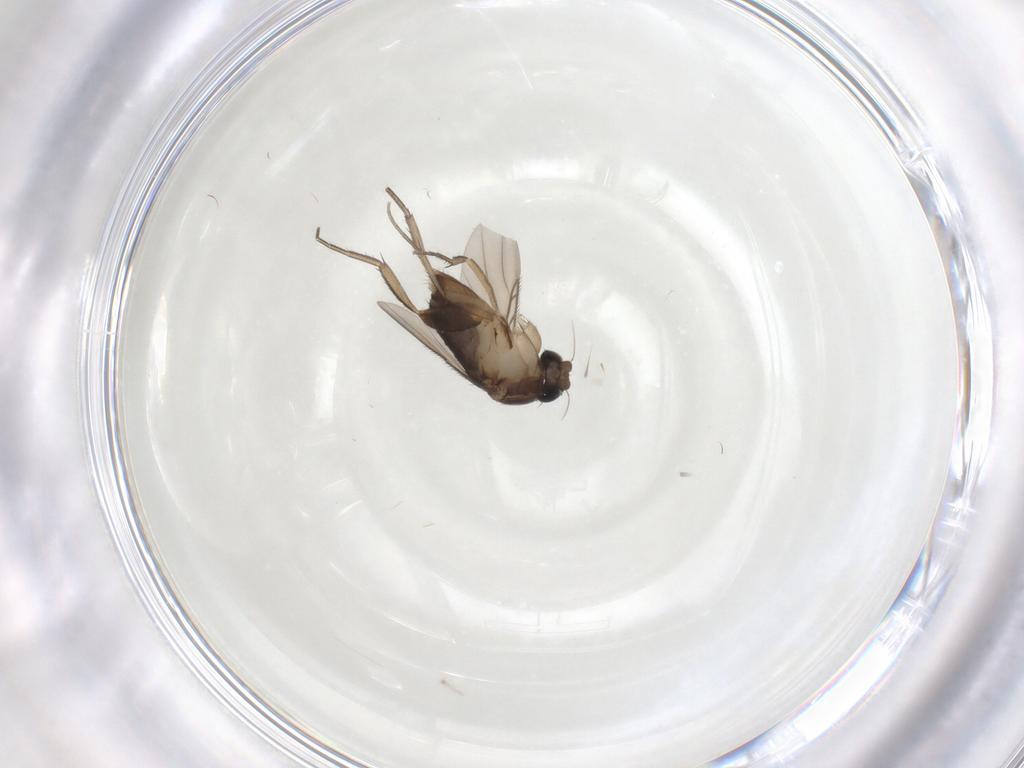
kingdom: Animalia
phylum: Arthropoda
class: Insecta
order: Diptera
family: Phoridae
